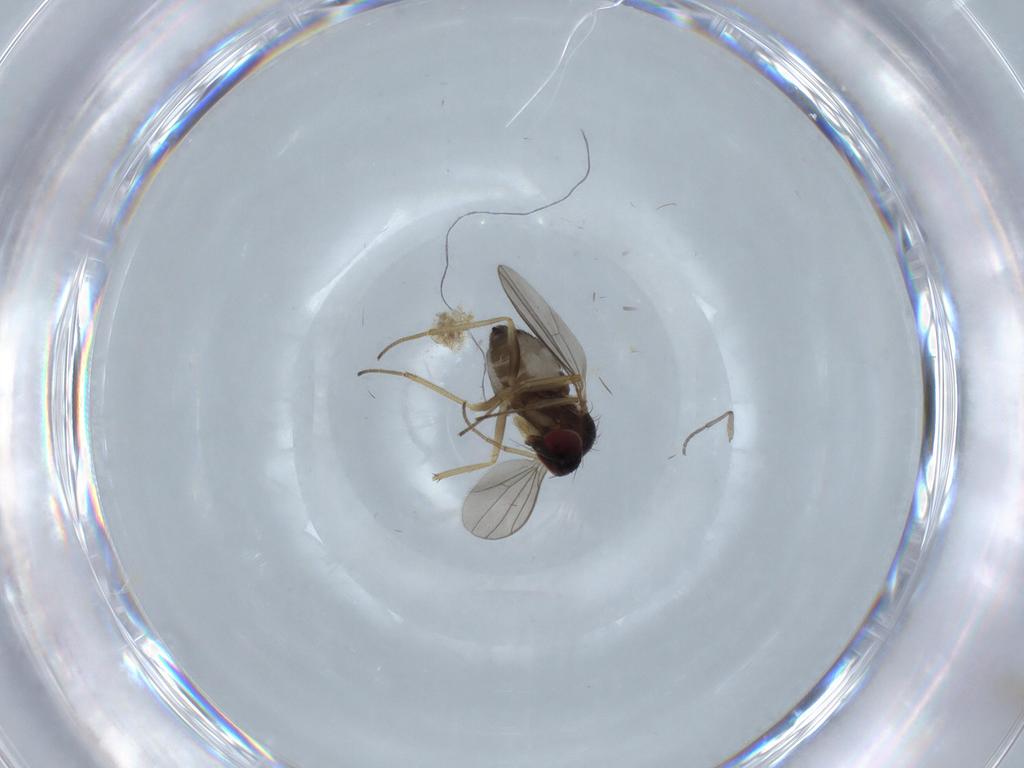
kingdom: Animalia
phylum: Arthropoda
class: Insecta
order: Diptera
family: Dolichopodidae
